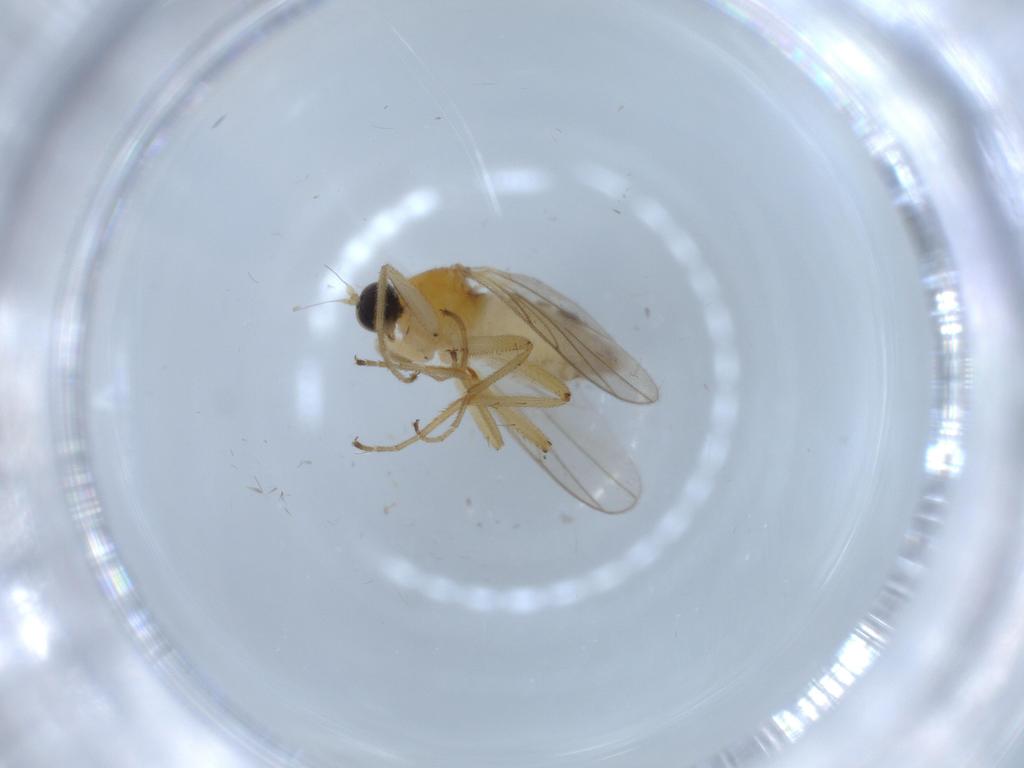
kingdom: Animalia
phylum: Arthropoda
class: Insecta
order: Diptera
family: Hybotidae
